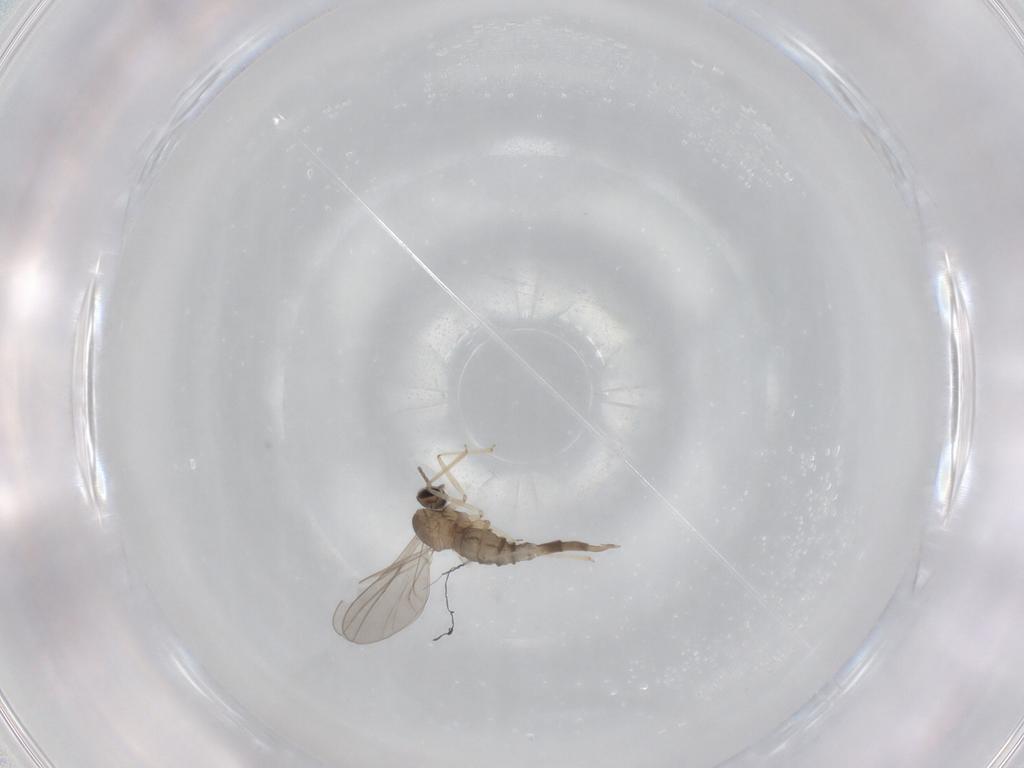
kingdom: Animalia
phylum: Arthropoda
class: Insecta
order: Diptera
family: Cecidomyiidae
